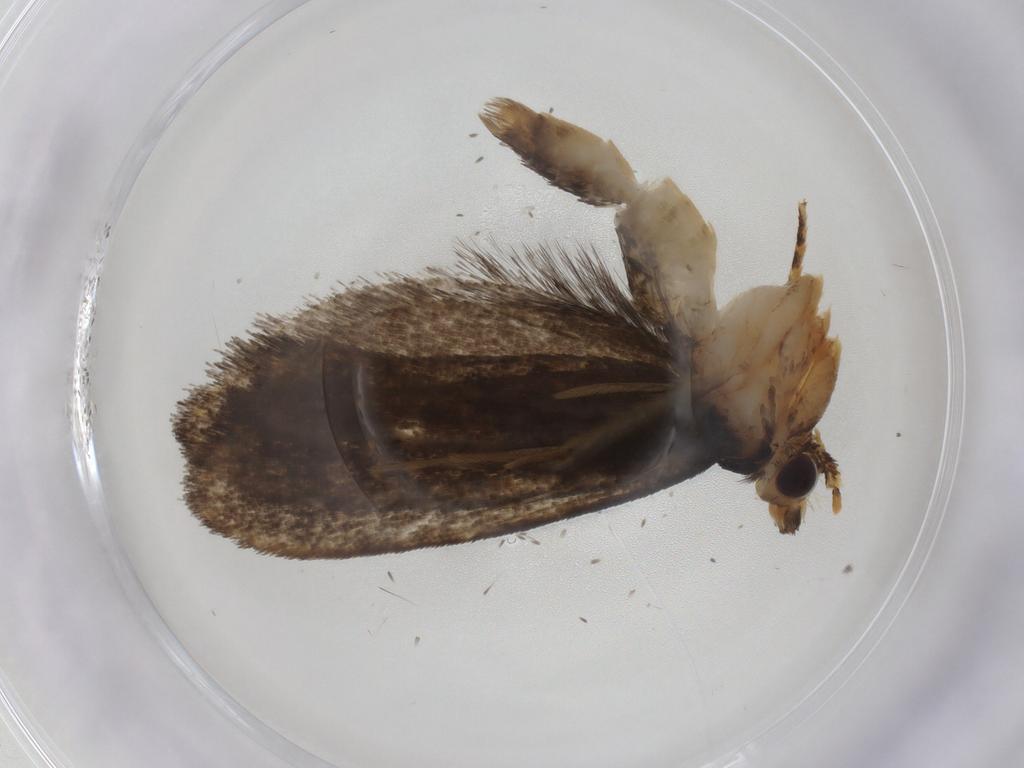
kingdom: Animalia
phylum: Arthropoda
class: Insecta
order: Lepidoptera
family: Tineidae
